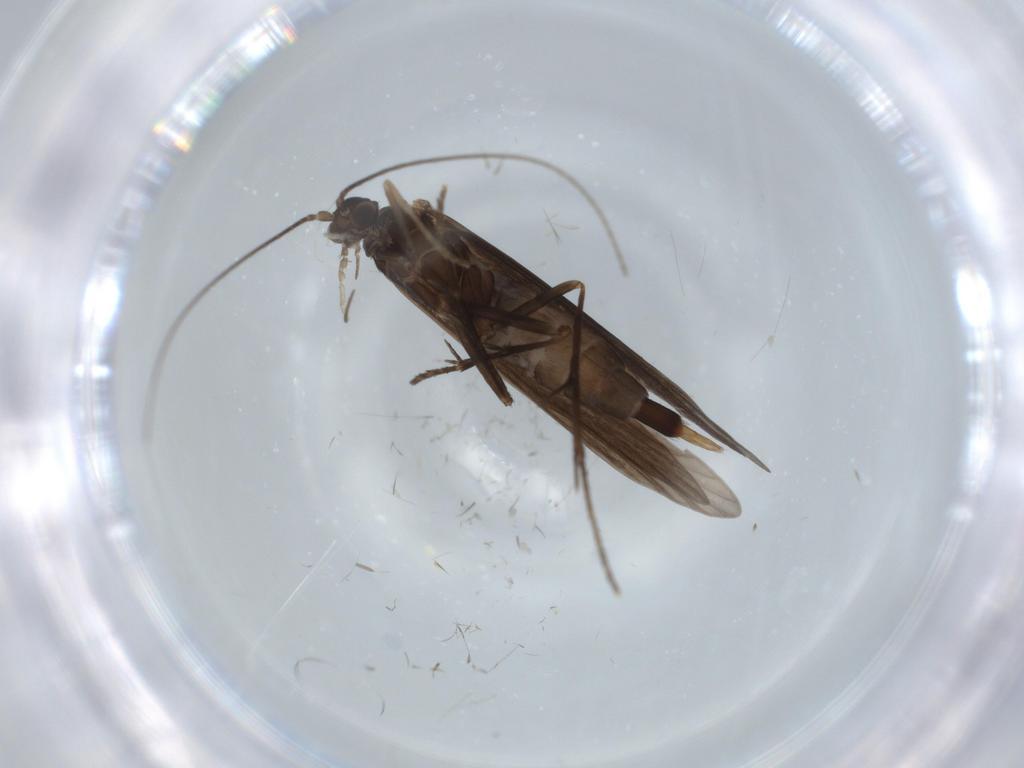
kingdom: Animalia
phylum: Arthropoda
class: Insecta
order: Trichoptera
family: Xiphocentronidae
